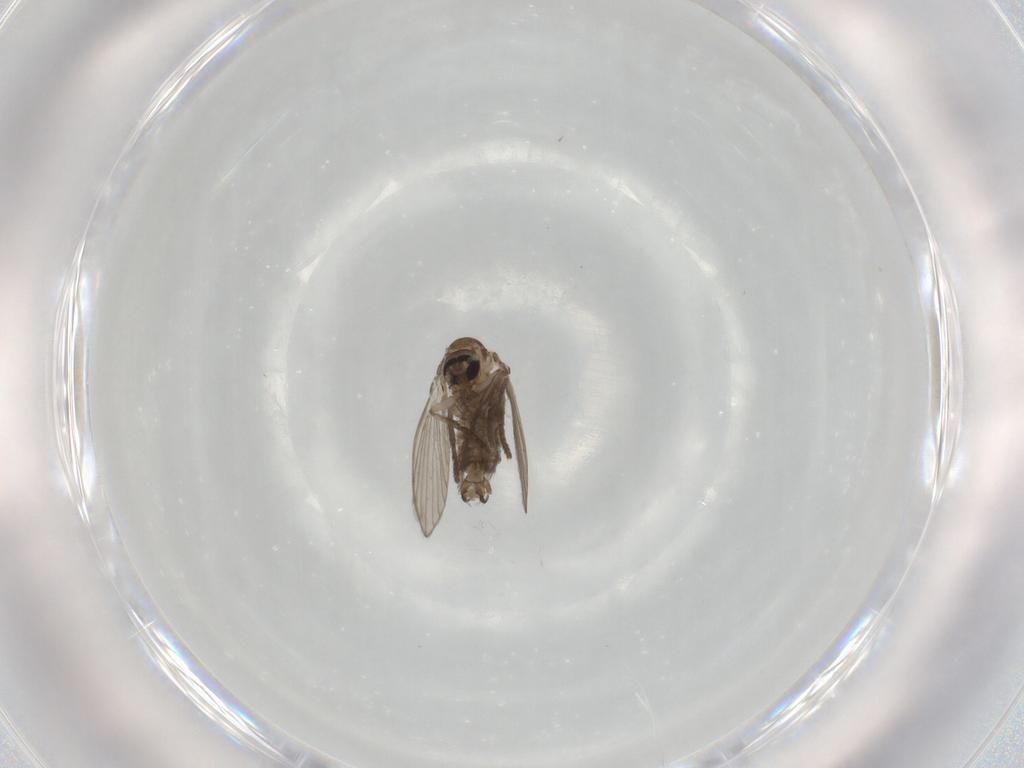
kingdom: Animalia
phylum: Arthropoda
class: Insecta
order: Diptera
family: Psychodidae
